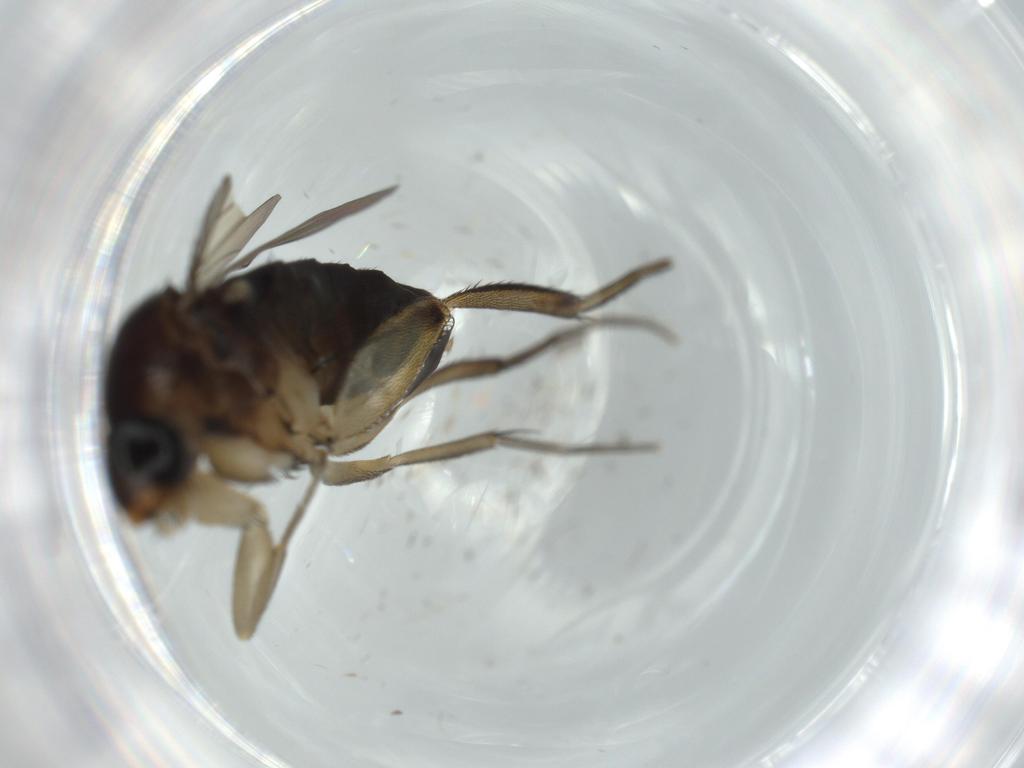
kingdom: Animalia
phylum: Arthropoda
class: Insecta
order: Diptera
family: Phoridae
